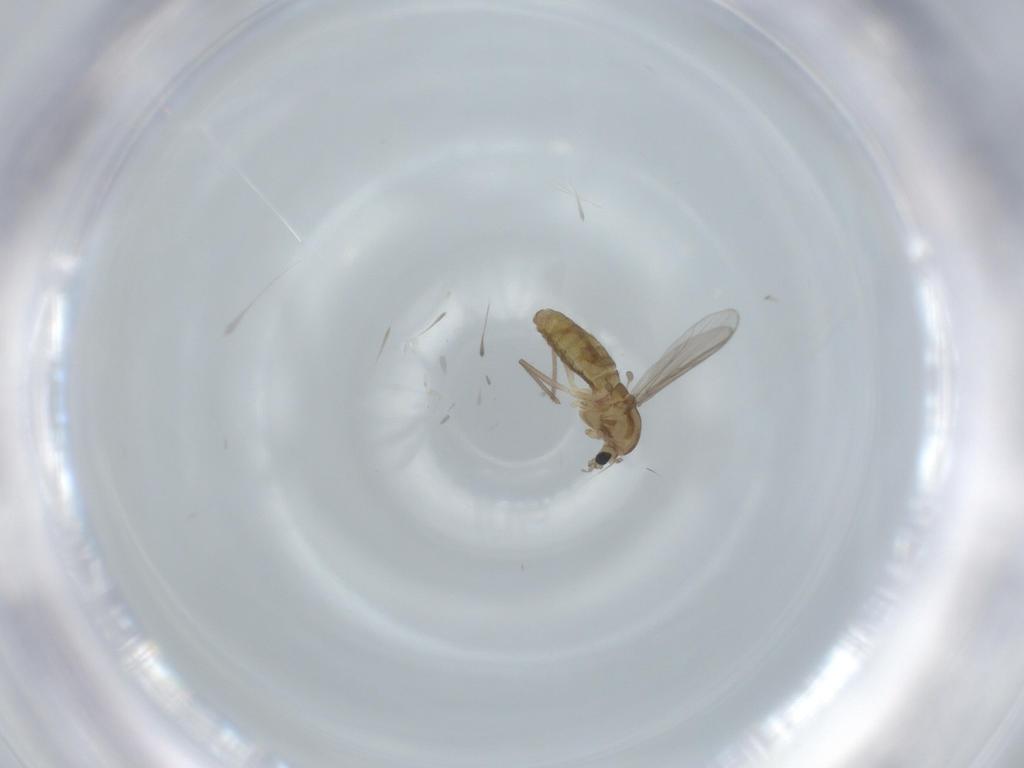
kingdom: Animalia
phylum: Arthropoda
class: Insecta
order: Diptera
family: Chironomidae
